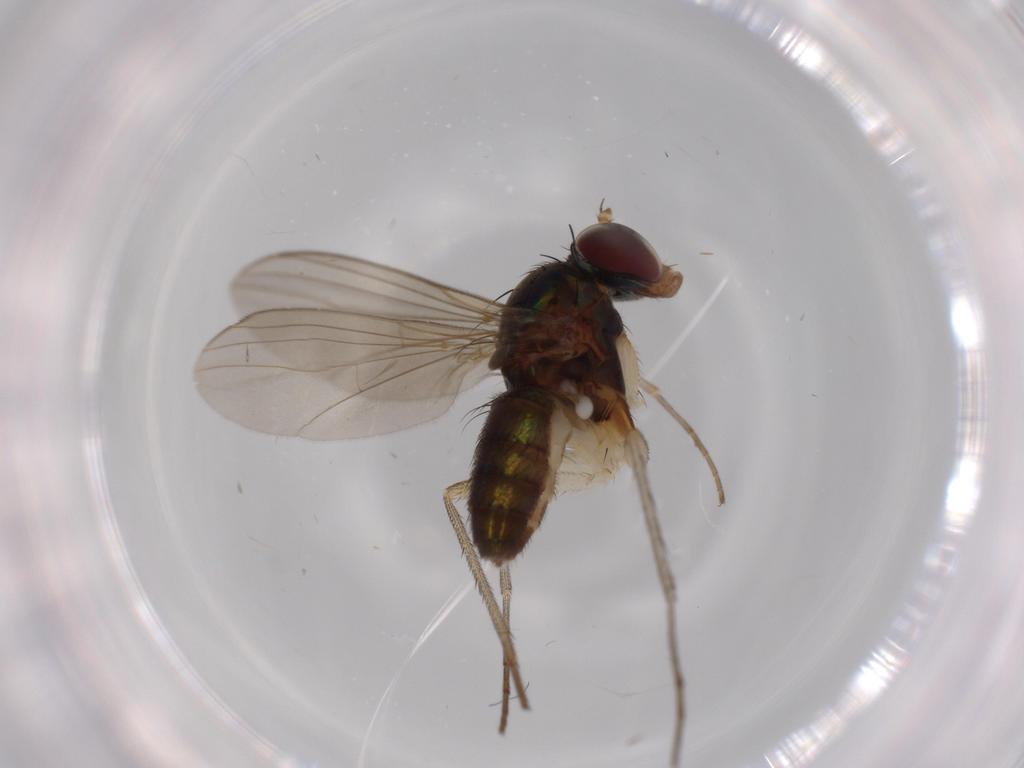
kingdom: Animalia
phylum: Arthropoda
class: Insecta
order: Diptera
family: Dolichopodidae
